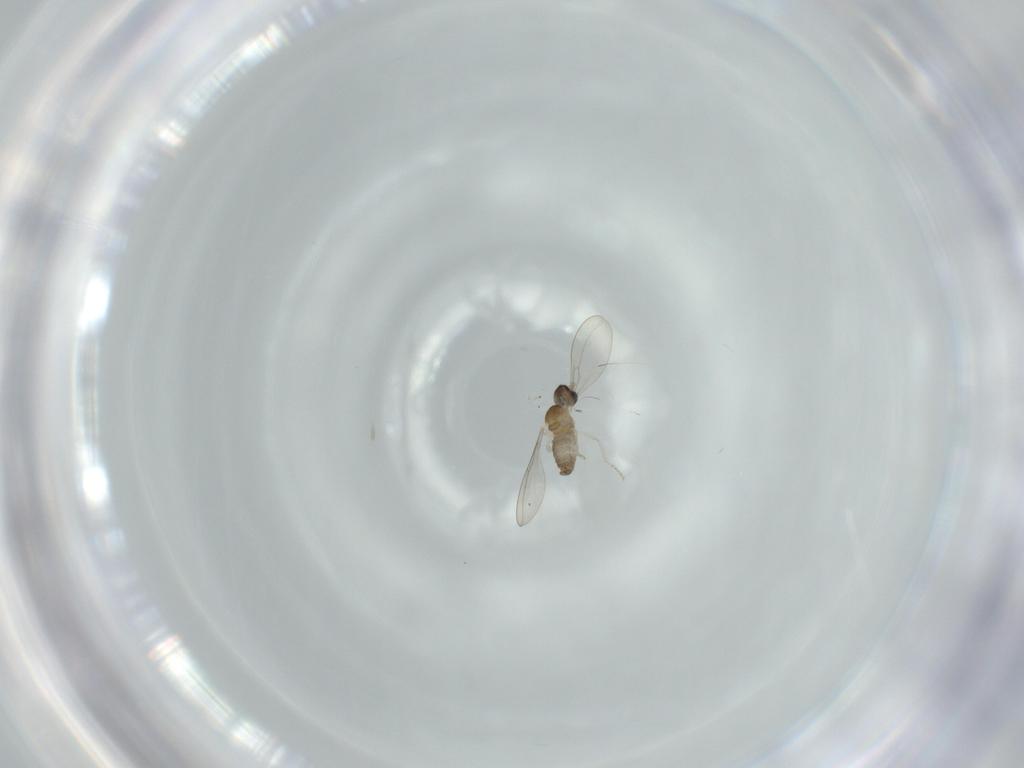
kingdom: Animalia
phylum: Arthropoda
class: Insecta
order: Diptera
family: Cecidomyiidae
